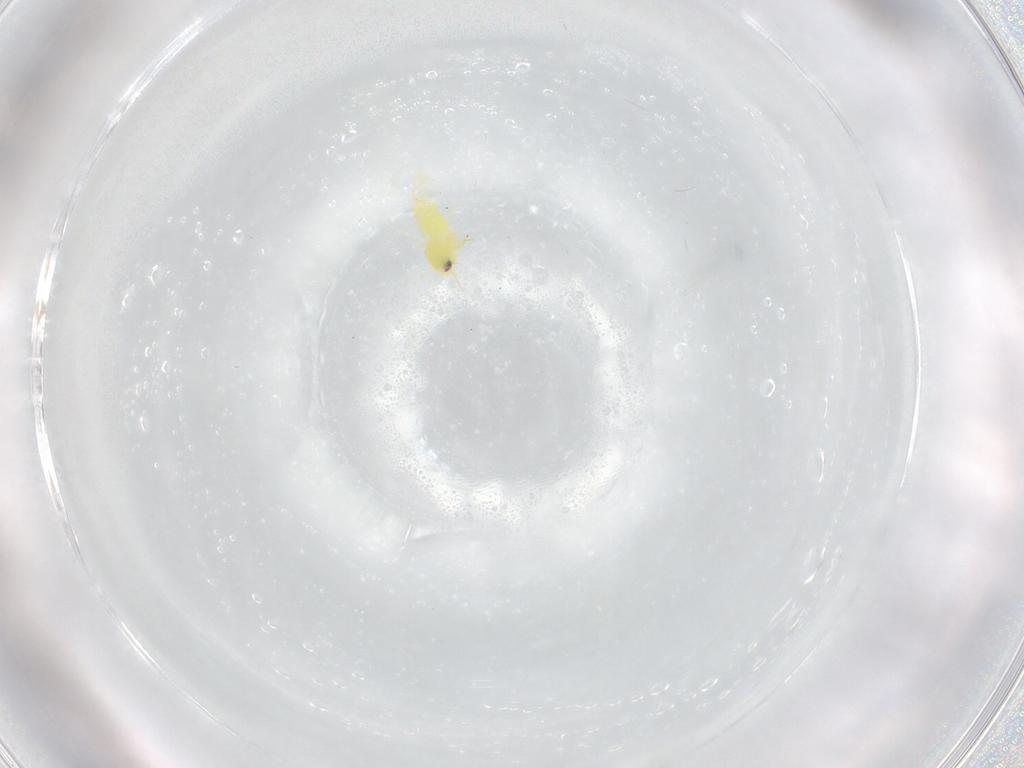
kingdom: Animalia
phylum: Arthropoda
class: Insecta
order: Hemiptera
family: Aleyrodidae
